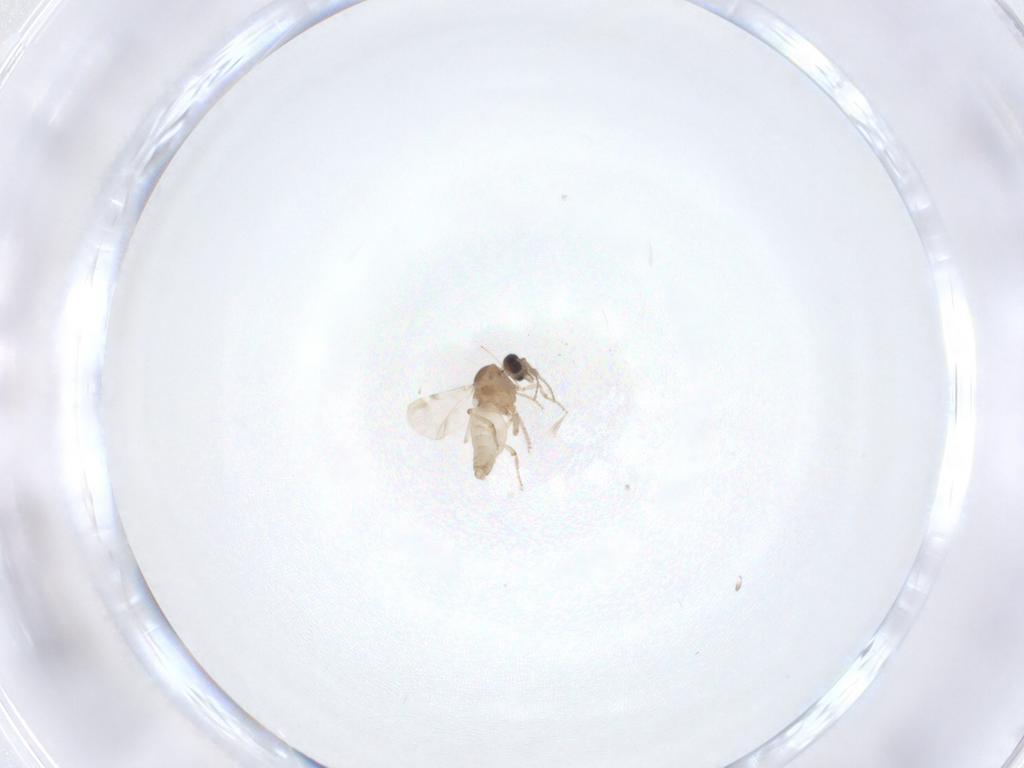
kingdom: Animalia
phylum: Arthropoda
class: Insecta
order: Diptera
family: Ceratopogonidae
